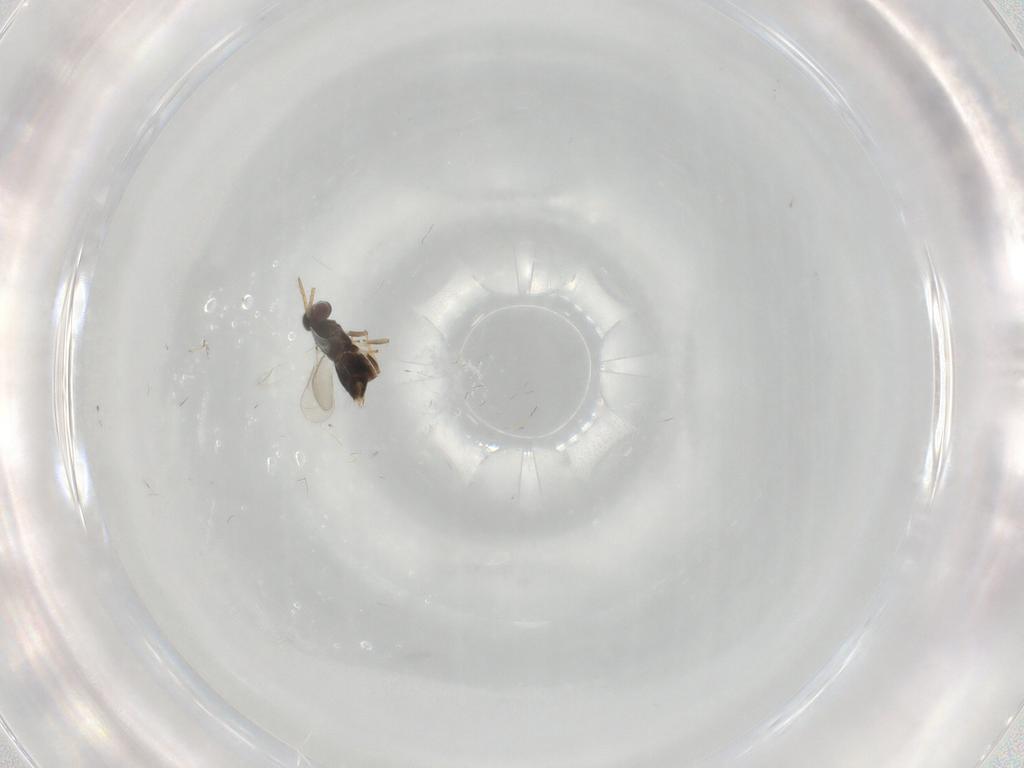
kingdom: Animalia
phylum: Arthropoda
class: Insecta
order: Hymenoptera
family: Aphelinidae
